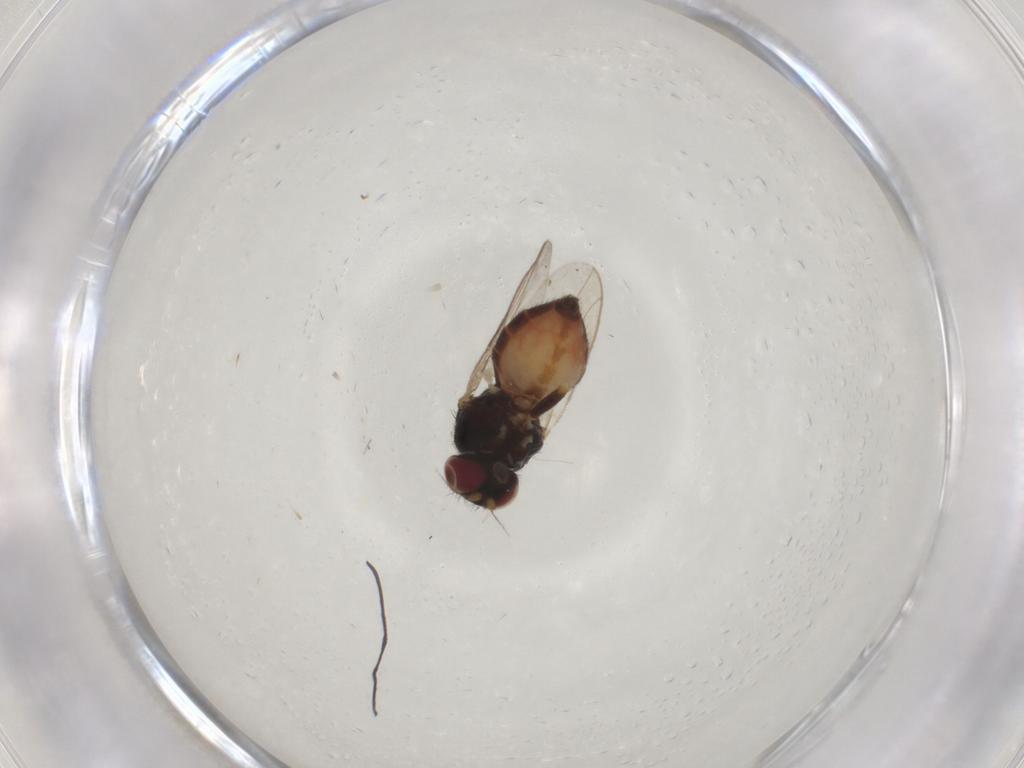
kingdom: Animalia
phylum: Arthropoda
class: Insecta
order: Diptera
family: Chloropidae
